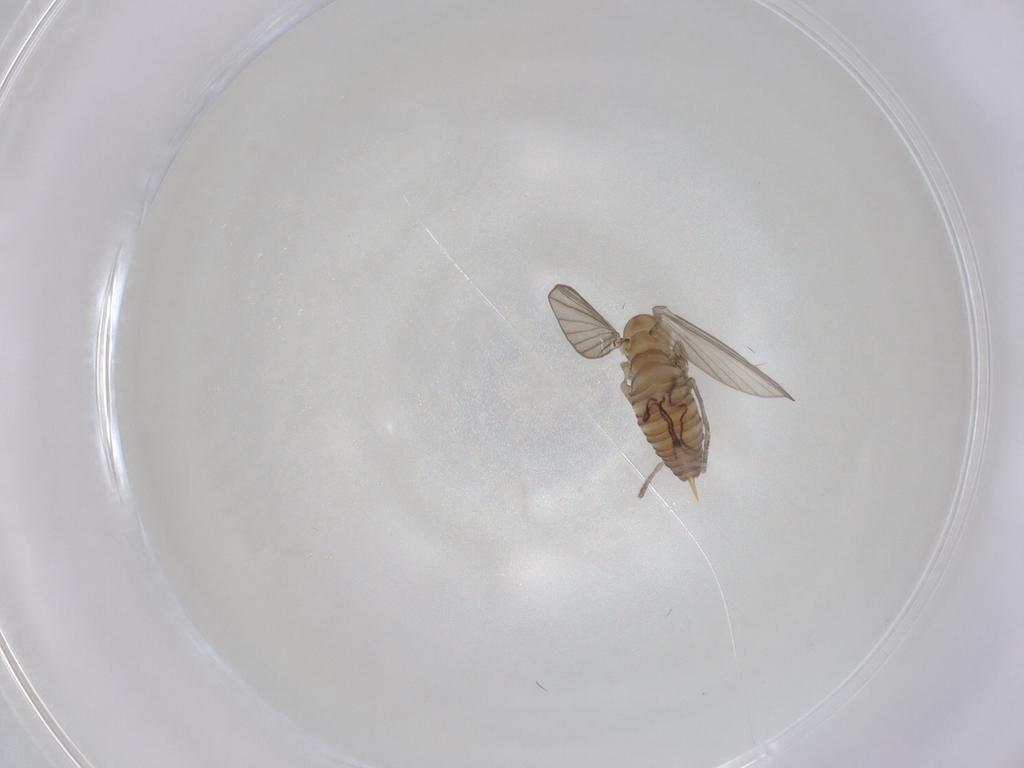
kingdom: Animalia
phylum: Arthropoda
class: Insecta
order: Diptera
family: Psychodidae
